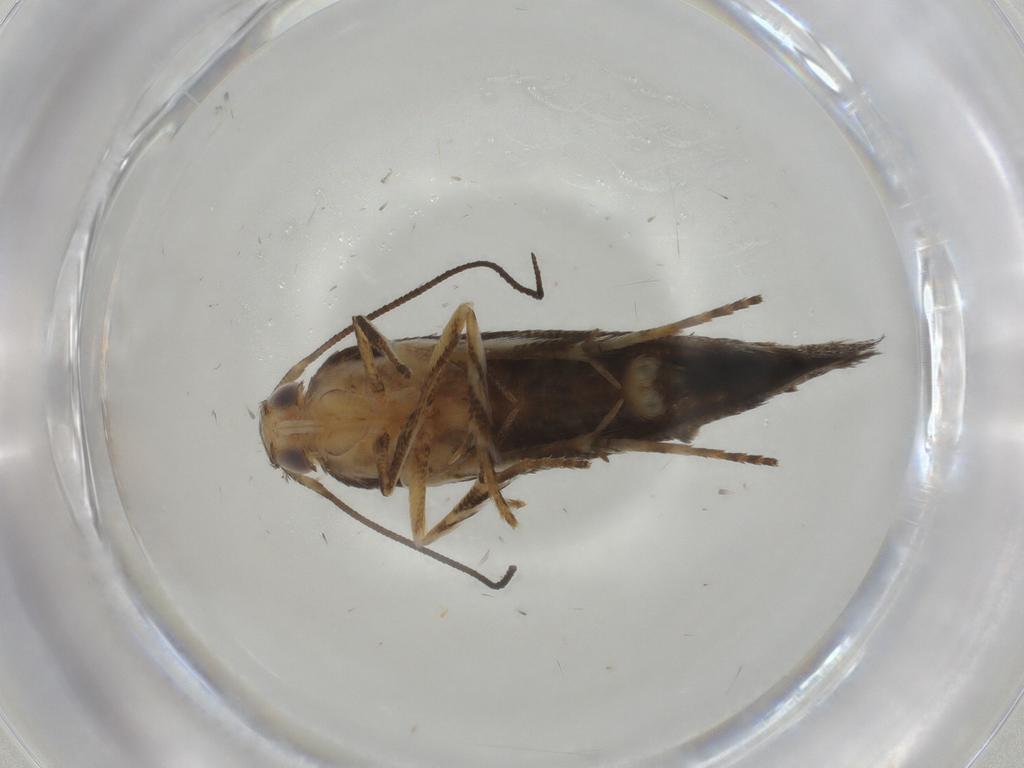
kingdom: Animalia
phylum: Arthropoda
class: Insecta
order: Lepidoptera
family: Elachistidae
